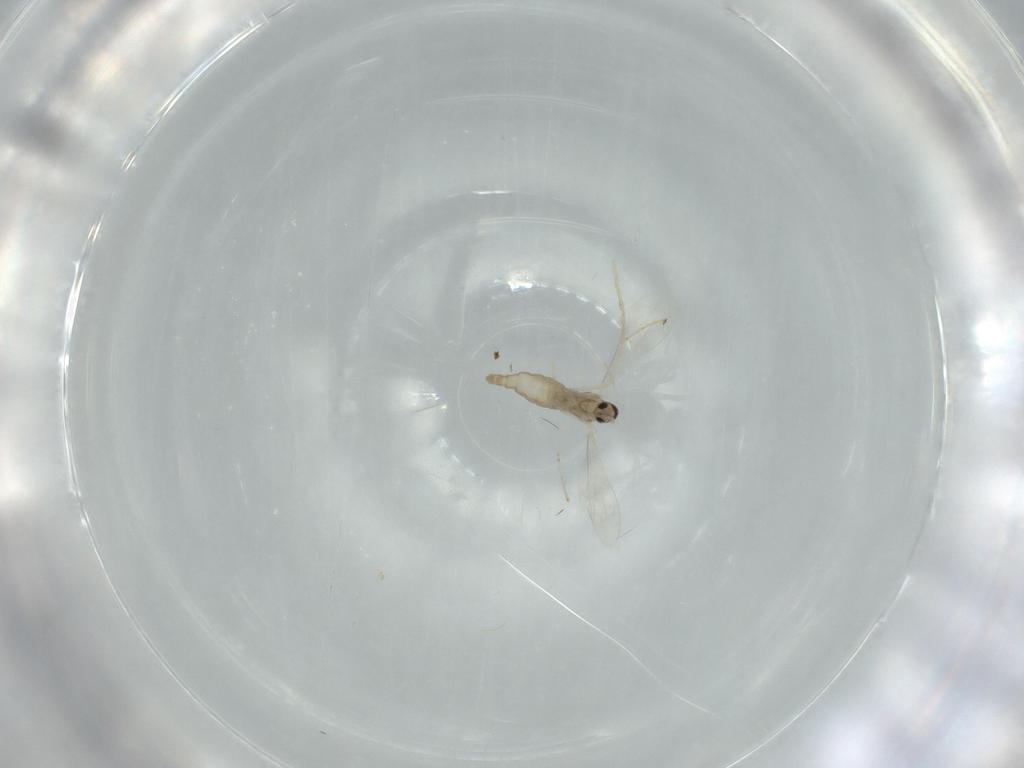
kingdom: Animalia
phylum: Arthropoda
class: Insecta
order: Diptera
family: Chironomidae
